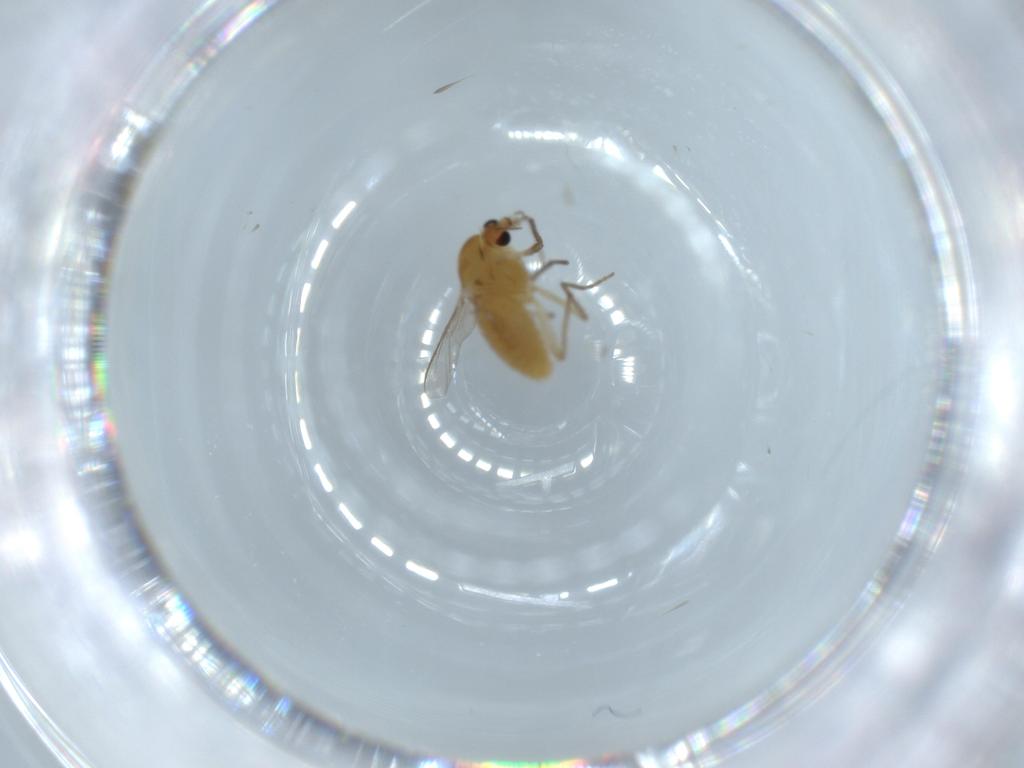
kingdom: Animalia
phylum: Arthropoda
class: Insecta
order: Diptera
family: Chironomidae
